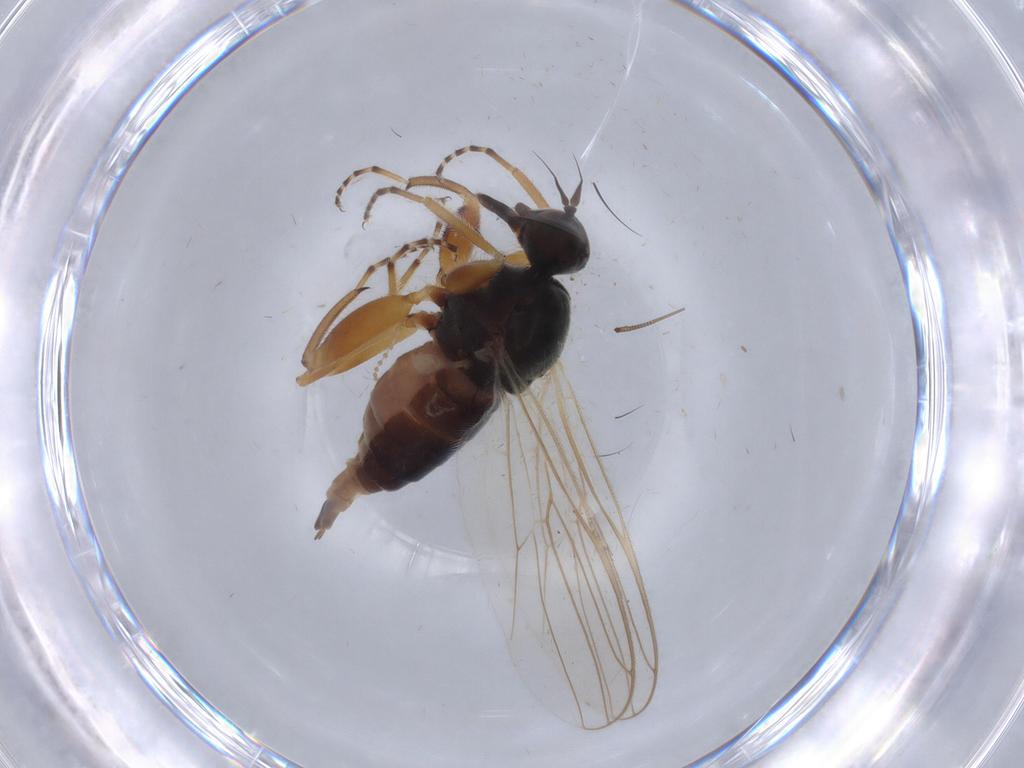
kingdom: Animalia
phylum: Arthropoda
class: Insecta
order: Diptera
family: Hybotidae
